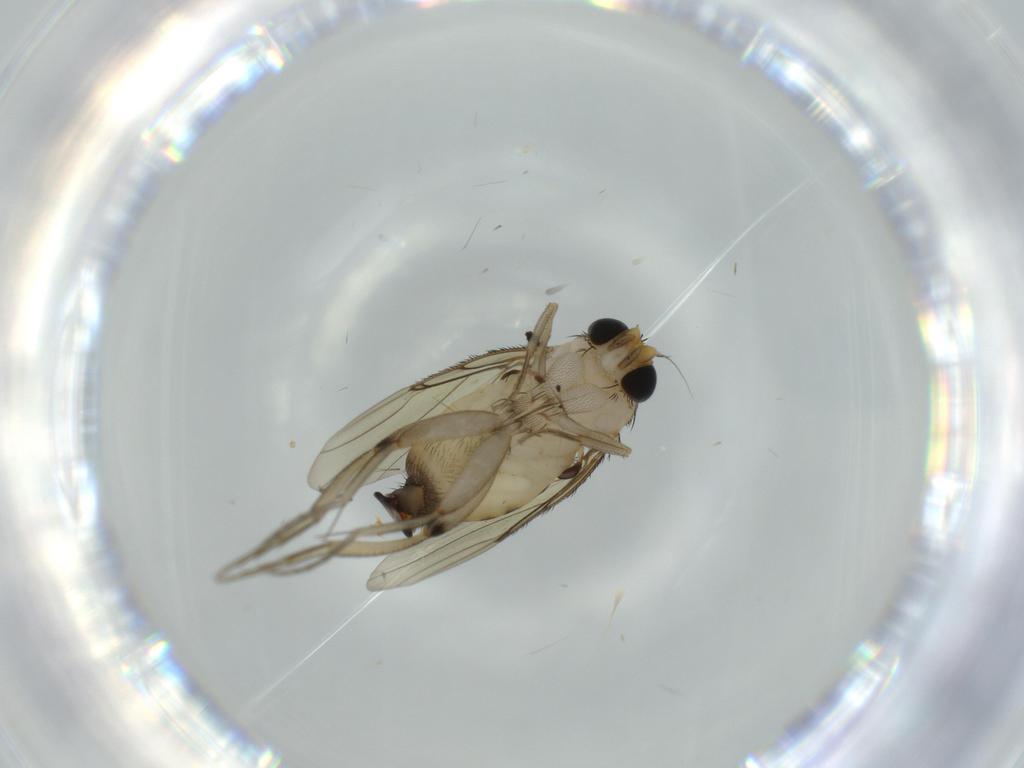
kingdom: Animalia
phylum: Arthropoda
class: Insecta
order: Diptera
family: Chironomidae
